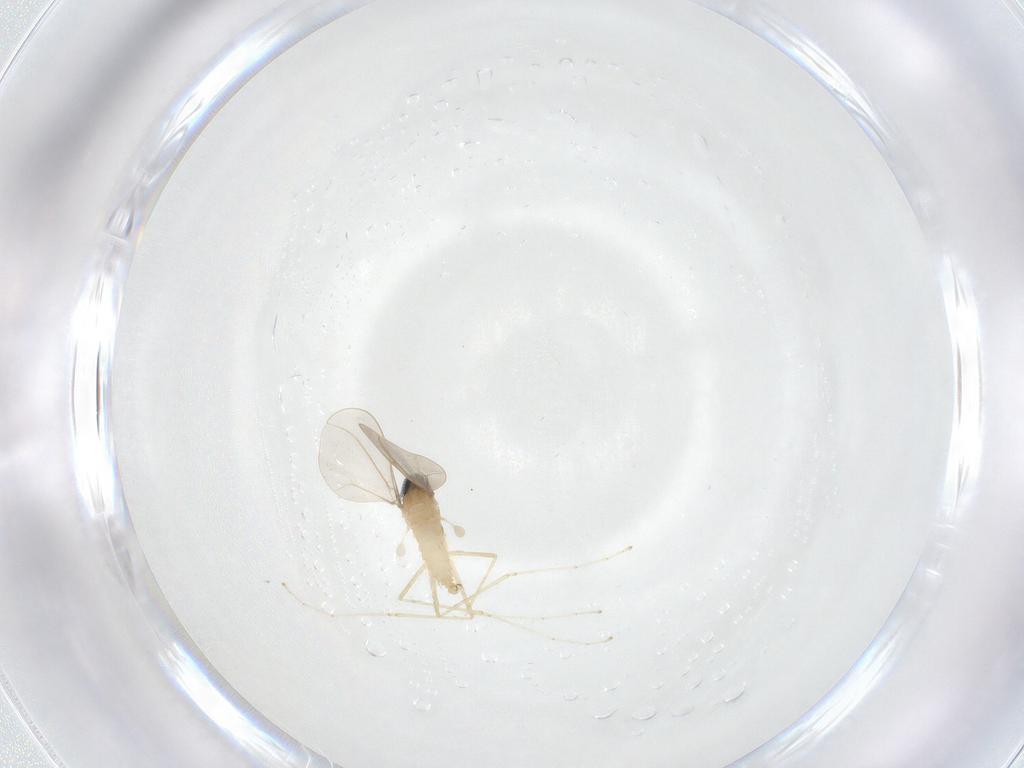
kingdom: Animalia
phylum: Arthropoda
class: Insecta
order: Diptera
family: Cecidomyiidae
